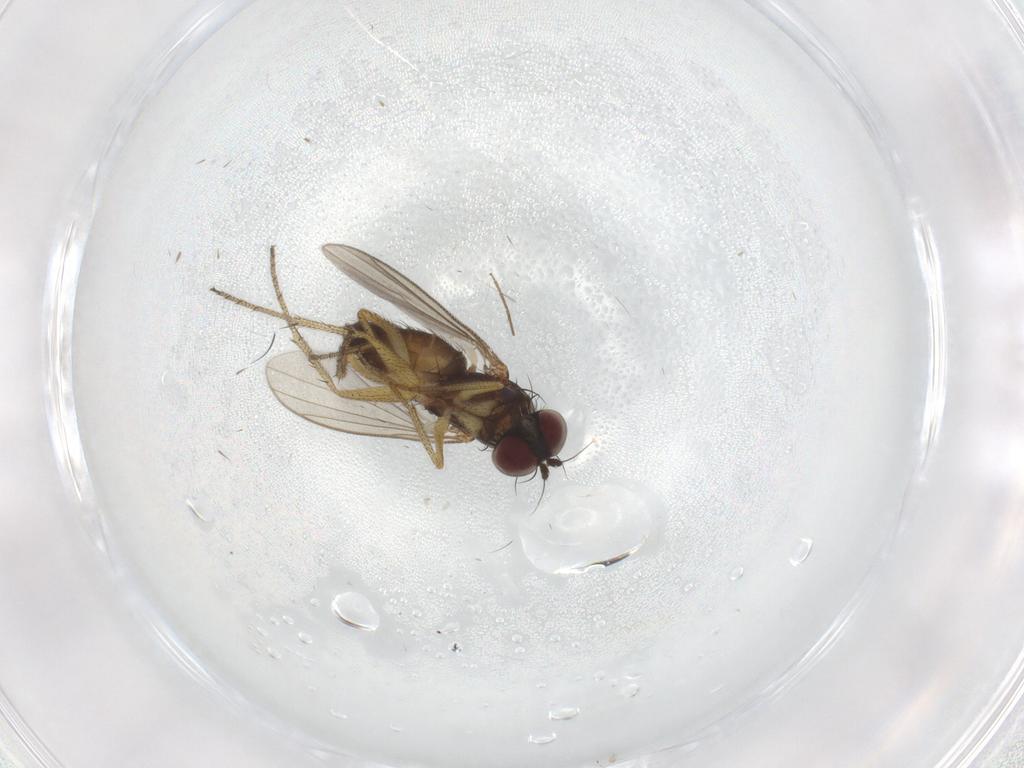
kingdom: Animalia
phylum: Arthropoda
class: Insecta
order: Diptera
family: Chironomidae
